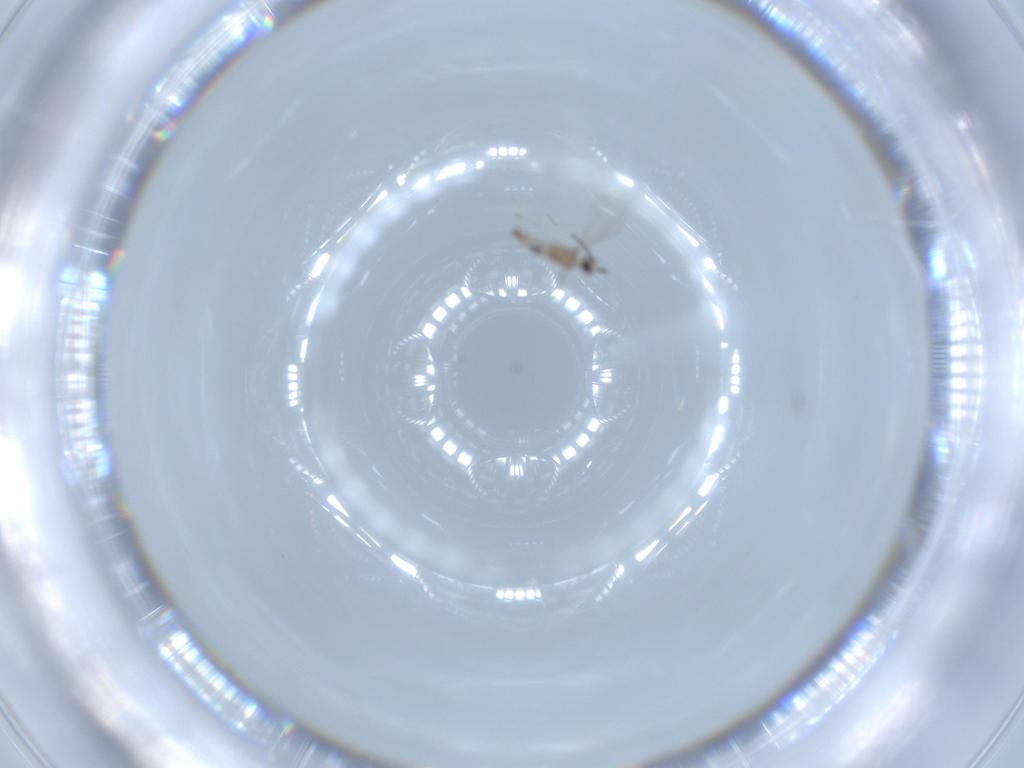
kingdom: Animalia
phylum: Arthropoda
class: Insecta
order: Diptera
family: Cecidomyiidae
